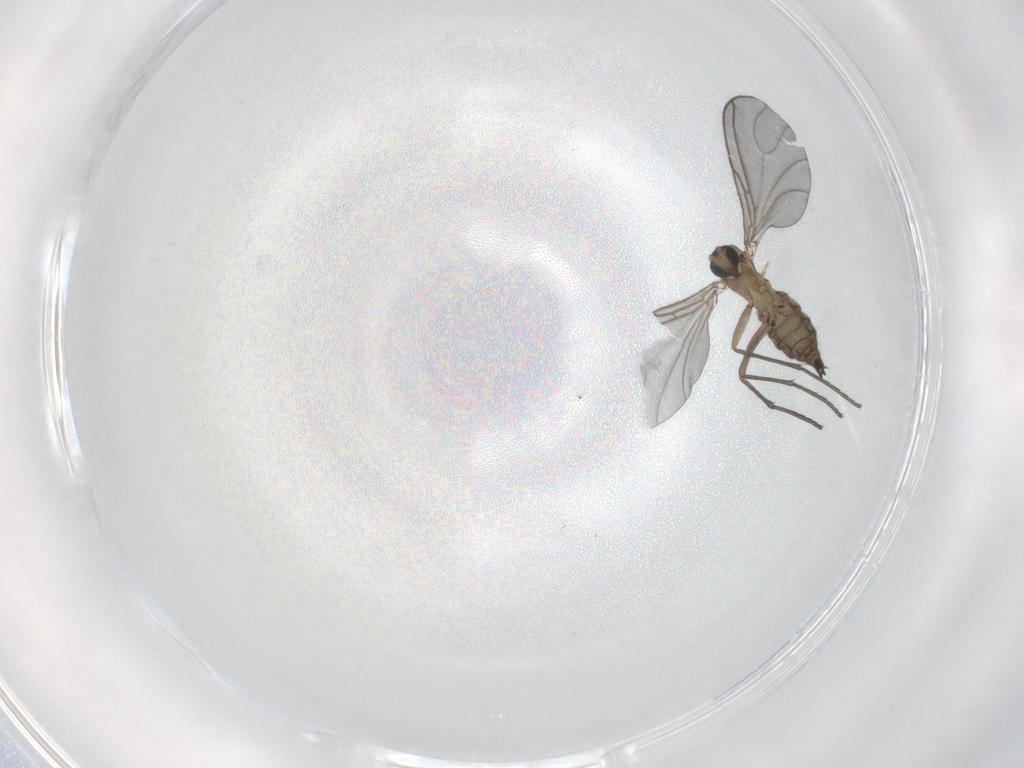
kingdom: Animalia
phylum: Arthropoda
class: Insecta
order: Diptera
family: Sciaridae
